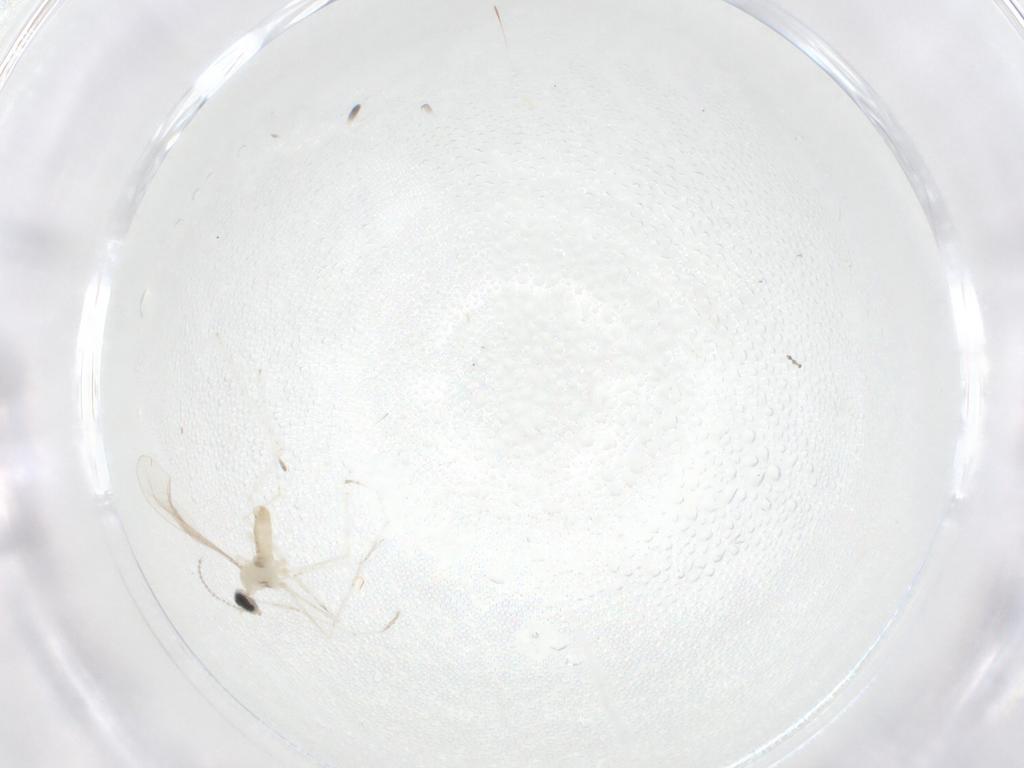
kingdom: Animalia
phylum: Arthropoda
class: Insecta
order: Diptera
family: Cecidomyiidae
